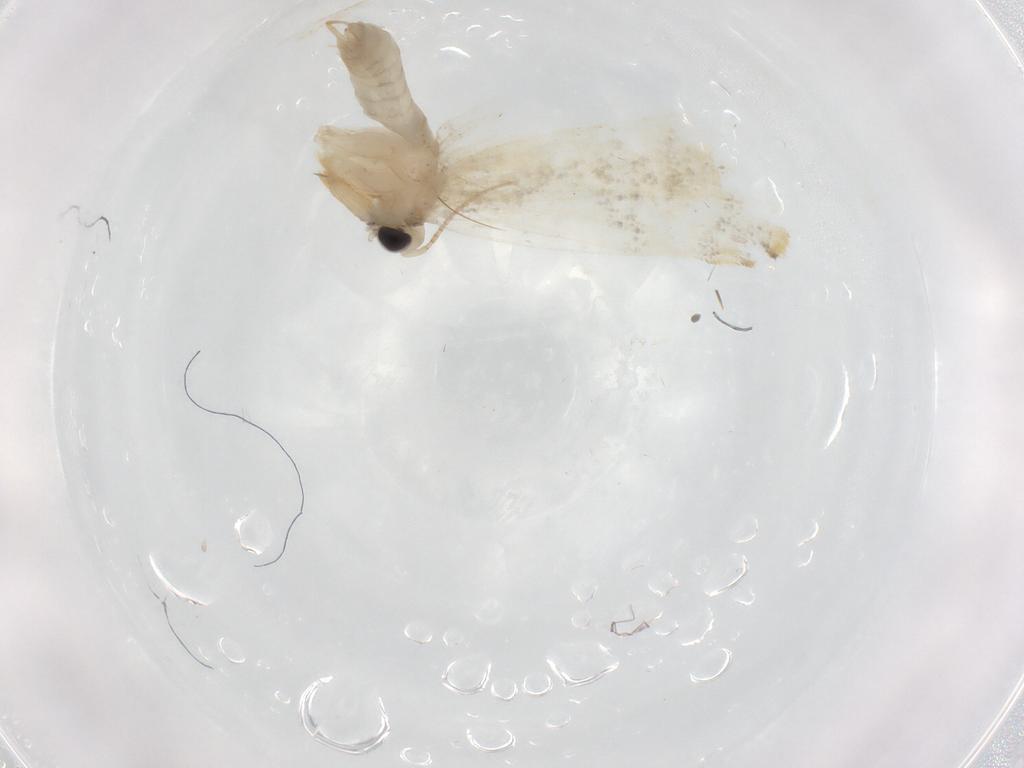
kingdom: Animalia
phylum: Arthropoda
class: Insecta
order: Lepidoptera
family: Psychidae
